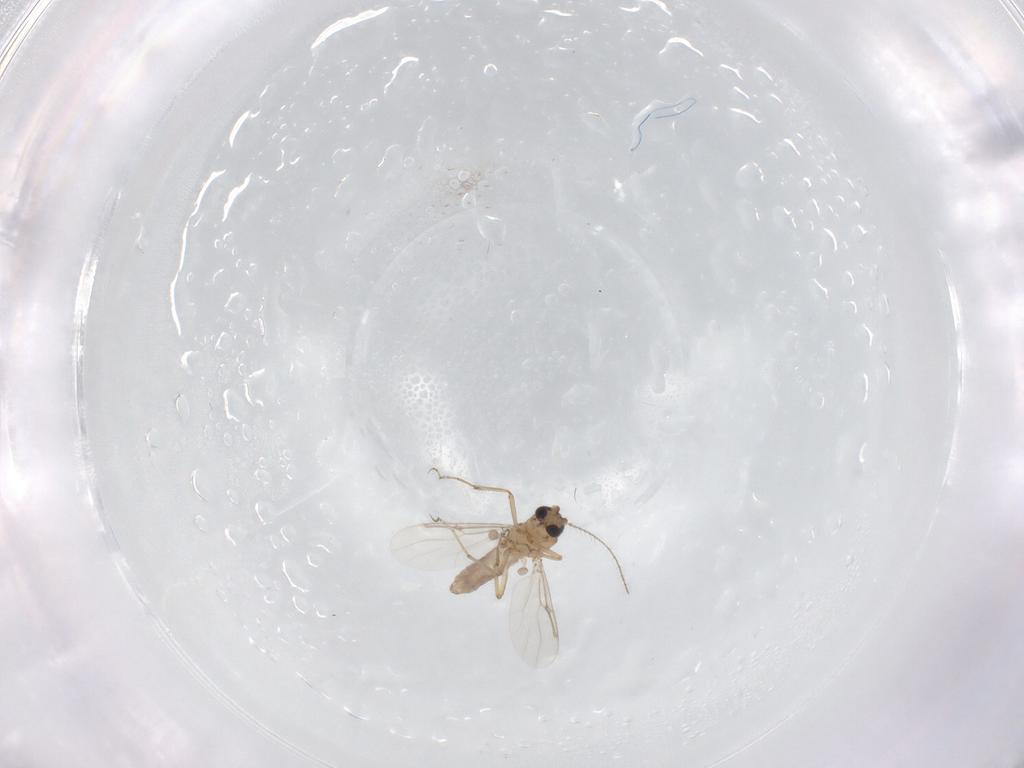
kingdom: Animalia
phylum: Arthropoda
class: Insecta
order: Diptera
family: Ceratopogonidae
